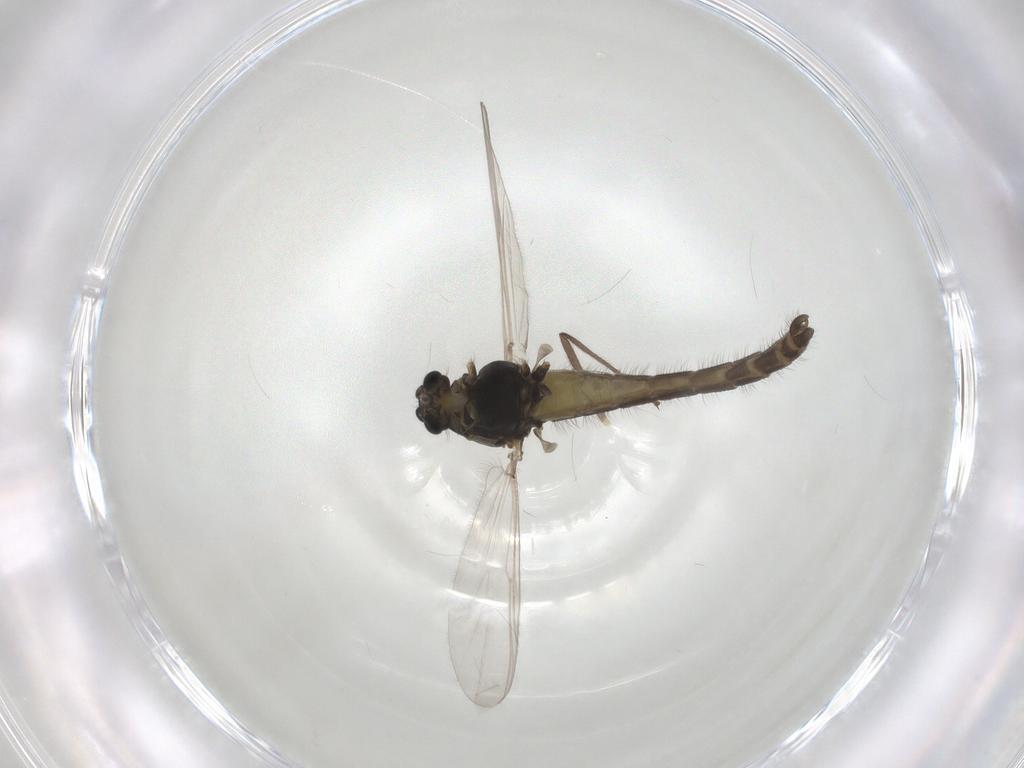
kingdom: Animalia
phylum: Arthropoda
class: Insecta
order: Diptera
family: Chironomidae
